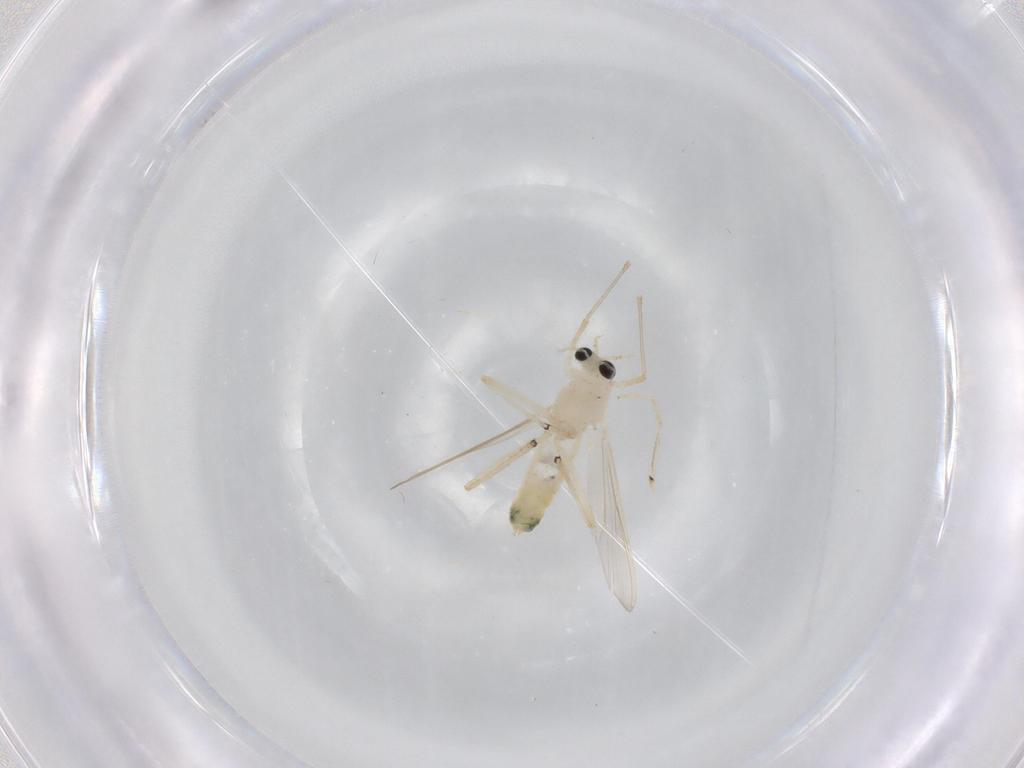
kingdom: Animalia
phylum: Arthropoda
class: Insecta
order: Diptera
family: Chironomidae
